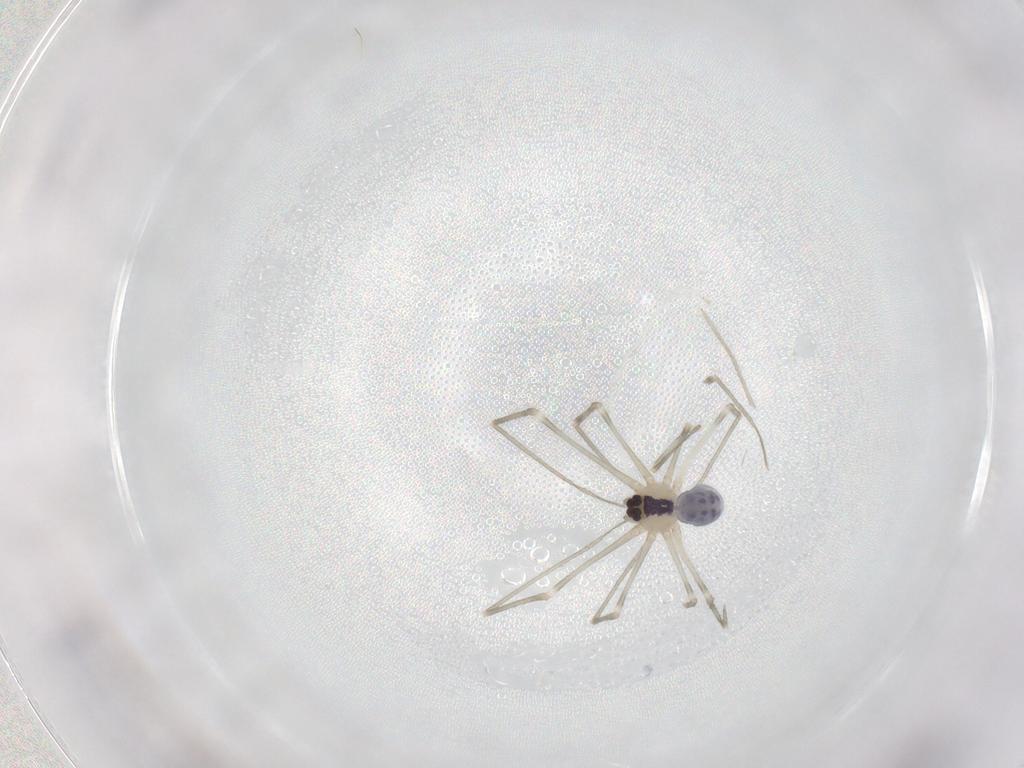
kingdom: Animalia
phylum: Arthropoda
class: Arachnida
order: Araneae
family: Pholcidae
